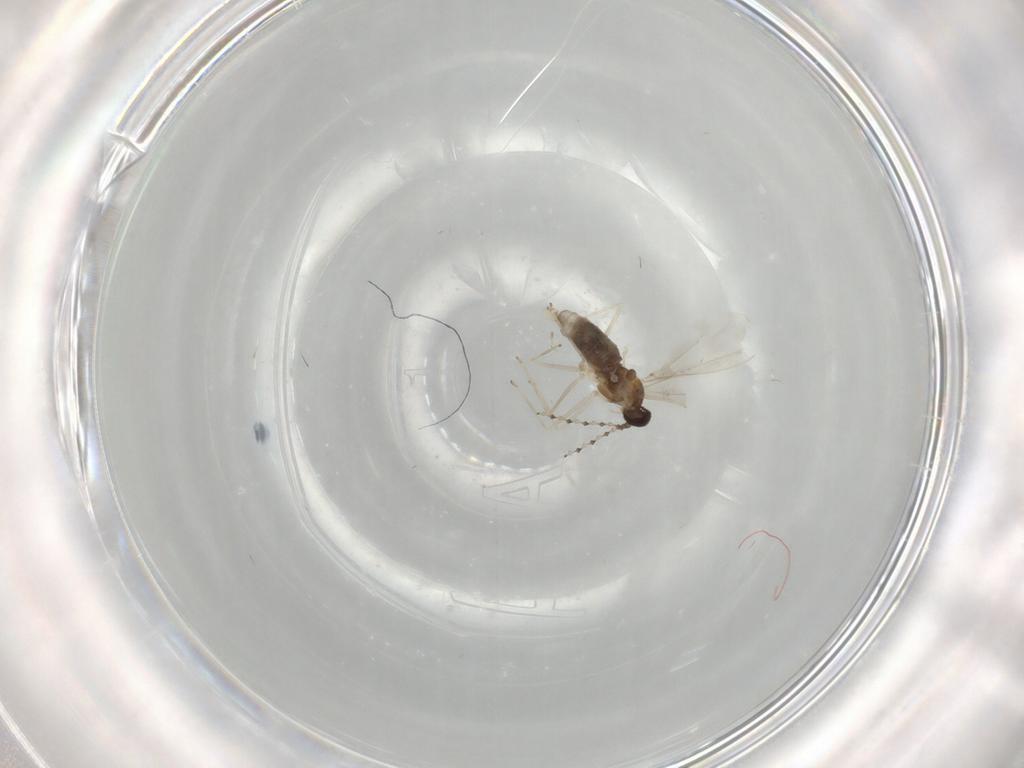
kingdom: Animalia
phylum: Arthropoda
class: Insecta
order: Diptera
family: Cecidomyiidae
